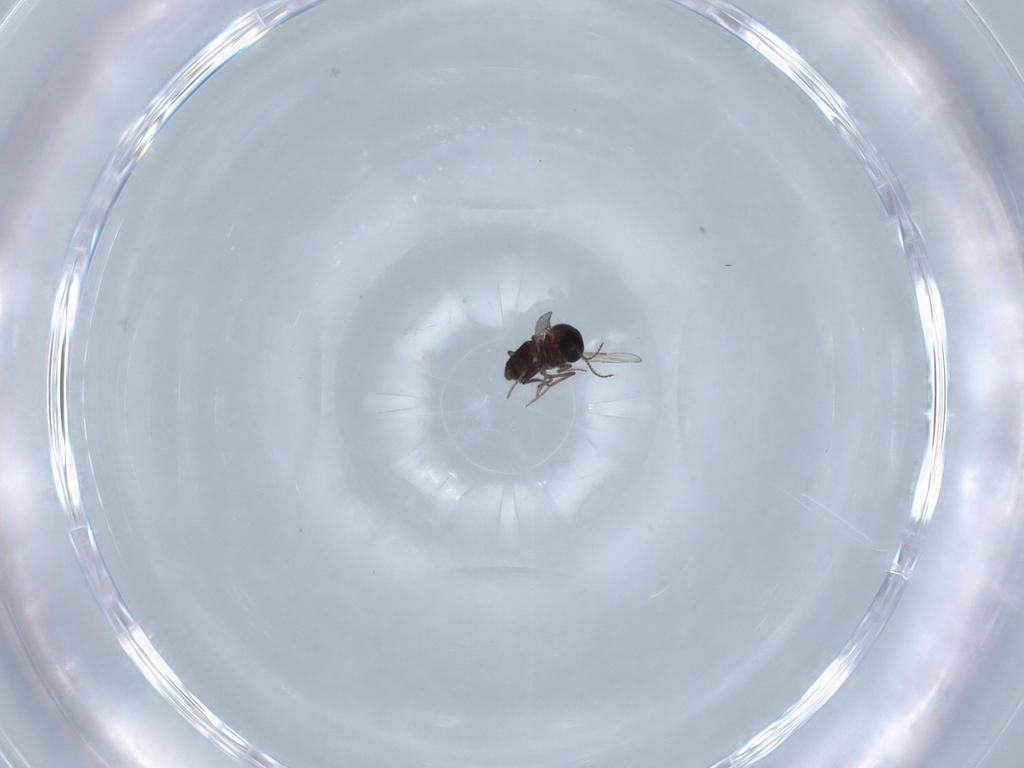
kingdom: Animalia
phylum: Arthropoda
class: Insecta
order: Diptera
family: Ceratopogonidae
